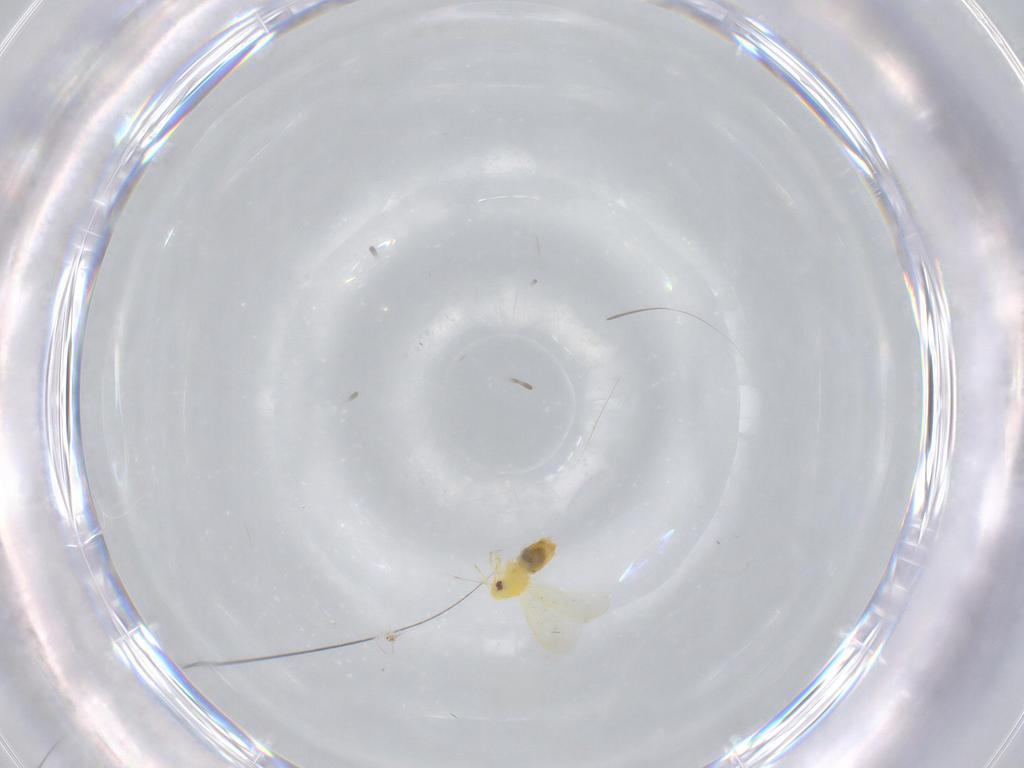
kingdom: Animalia
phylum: Arthropoda
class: Insecta
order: Hemiptera
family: Aleyrodidae
